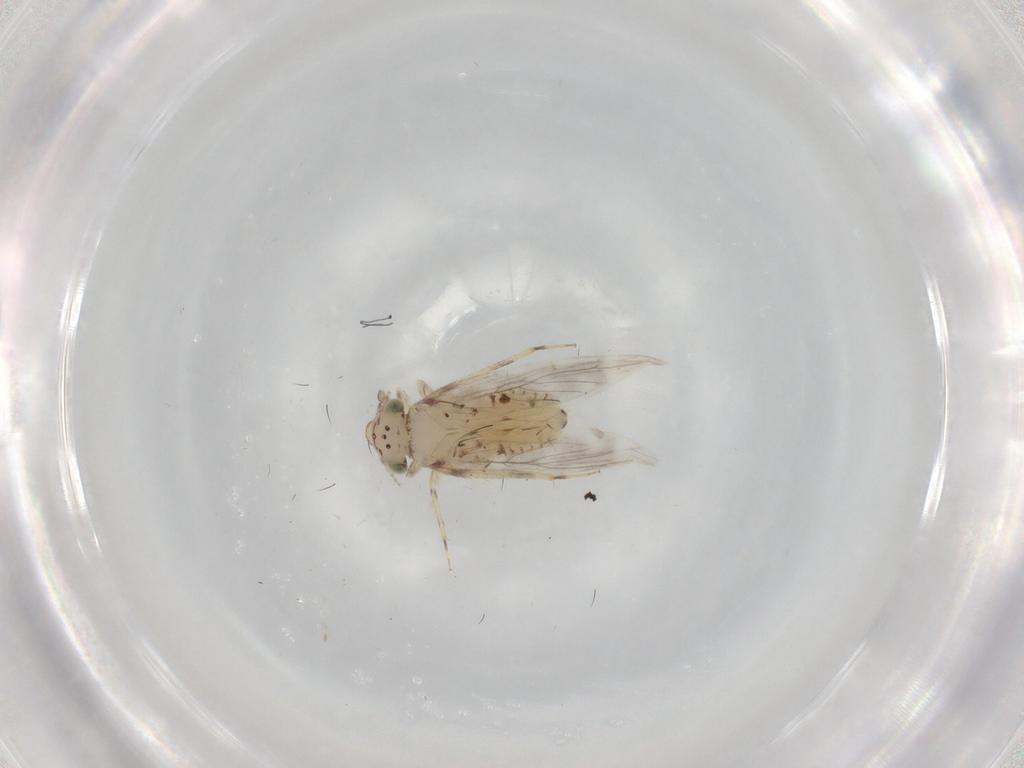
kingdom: Animalia
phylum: Arthropoda
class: Insecta
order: Psocodea
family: Lepidopsocidae
